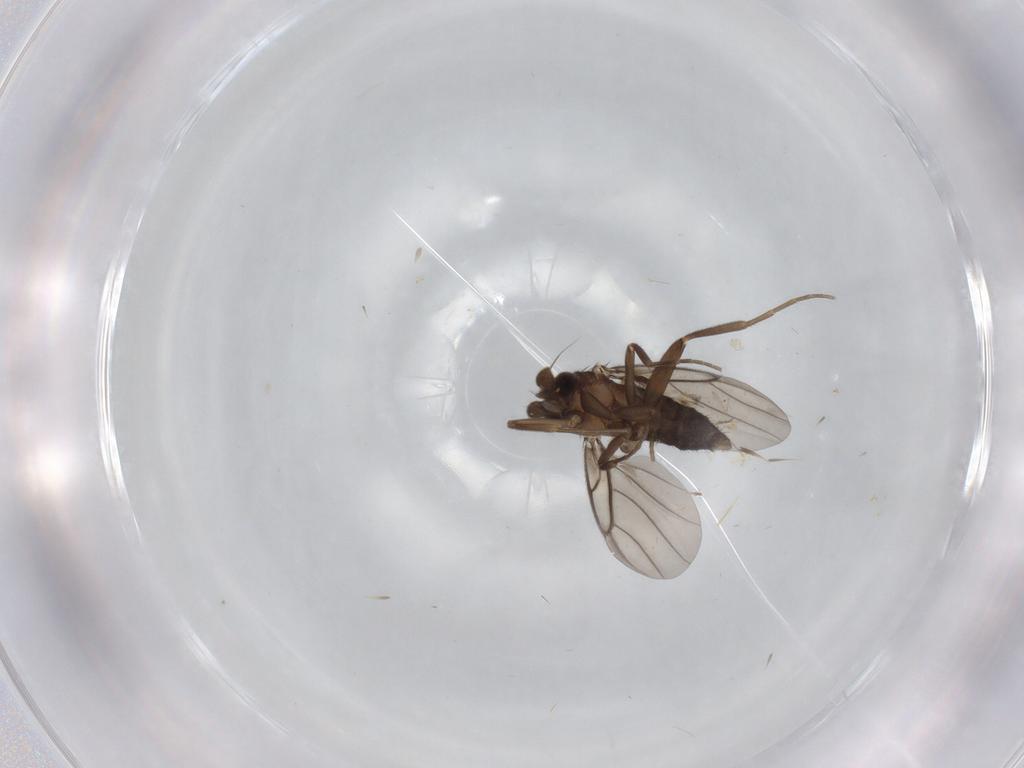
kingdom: Animalia
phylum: Arthropoda
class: Insecta
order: Diptera
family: Phoridae
